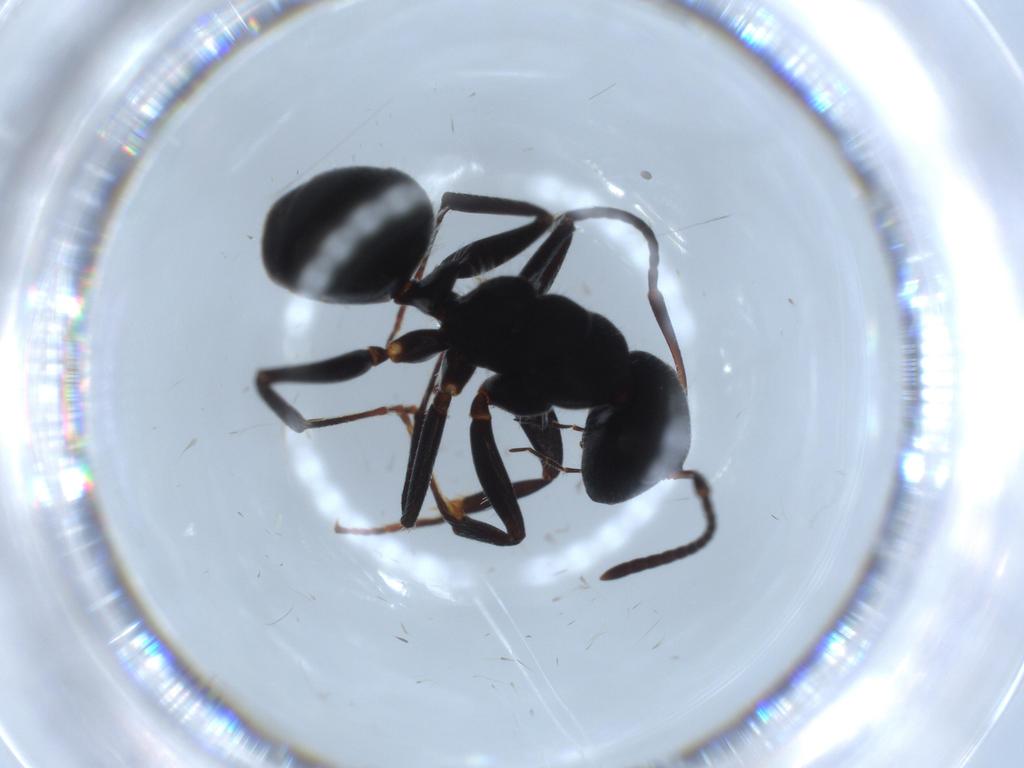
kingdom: Animalia
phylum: Arthropoda
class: Insecta
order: Hymenoptera
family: Formicidae
